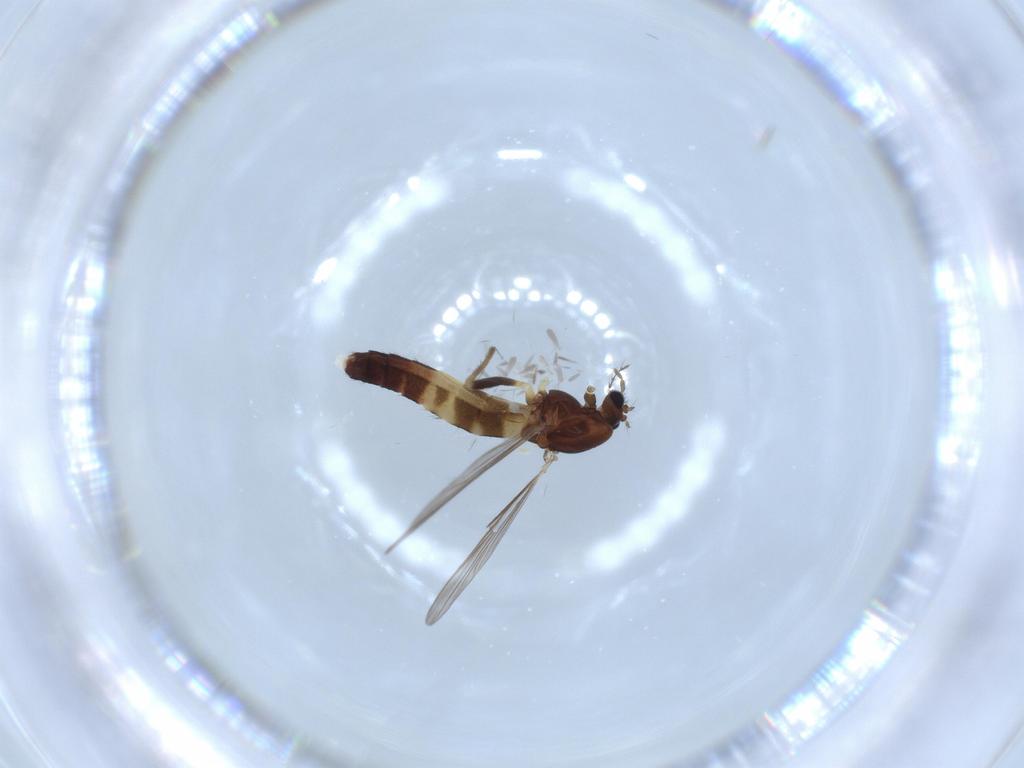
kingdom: Animalia
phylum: Arthropoda
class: Insecta
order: Diptera
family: Chironomidae
